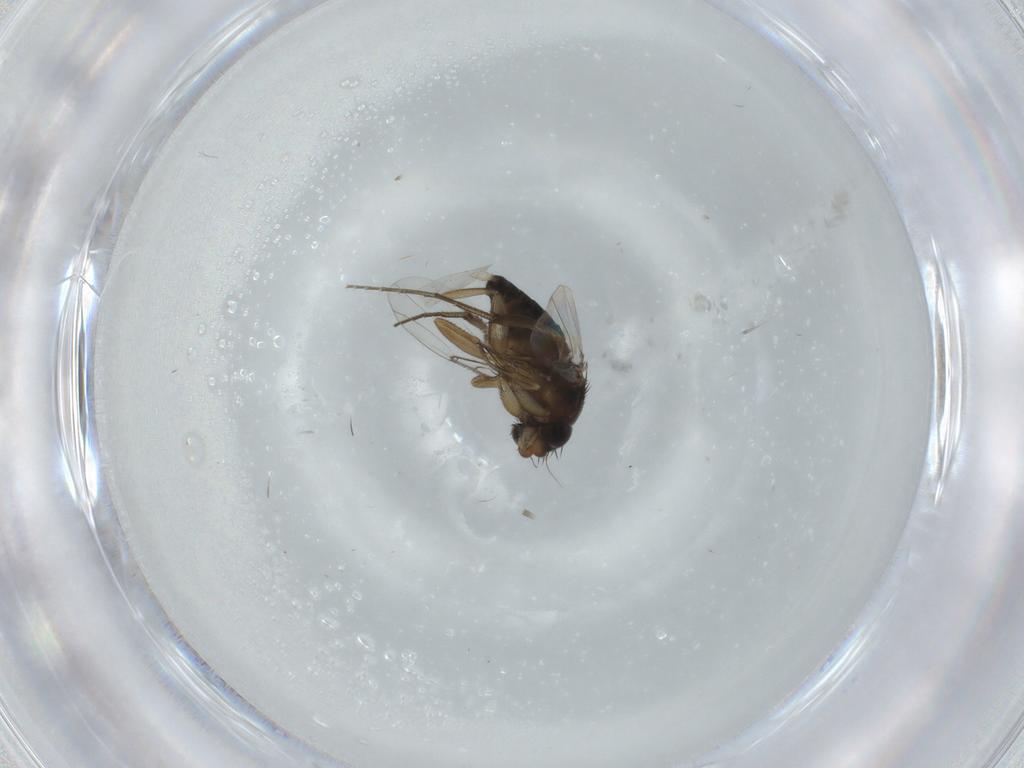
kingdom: Animalia
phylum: Arthropoda
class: Insecta
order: Diptera
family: Phoridae
